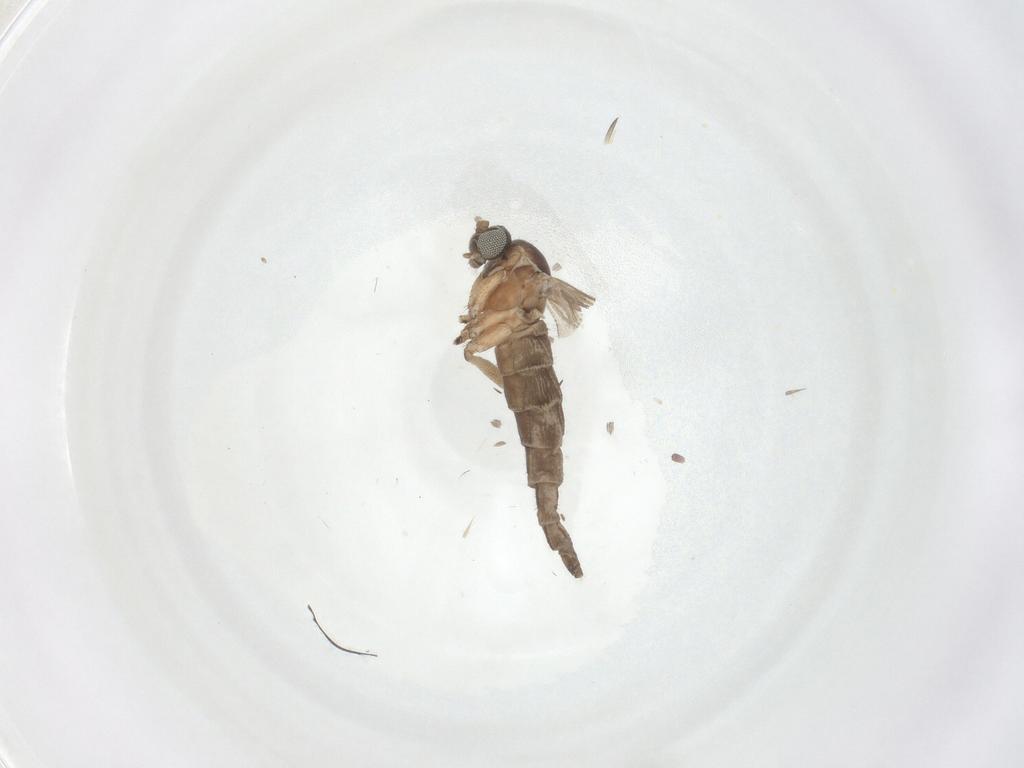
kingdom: Animalia
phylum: Arthropoda
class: Insecta
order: Diptera
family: Sciaridae
